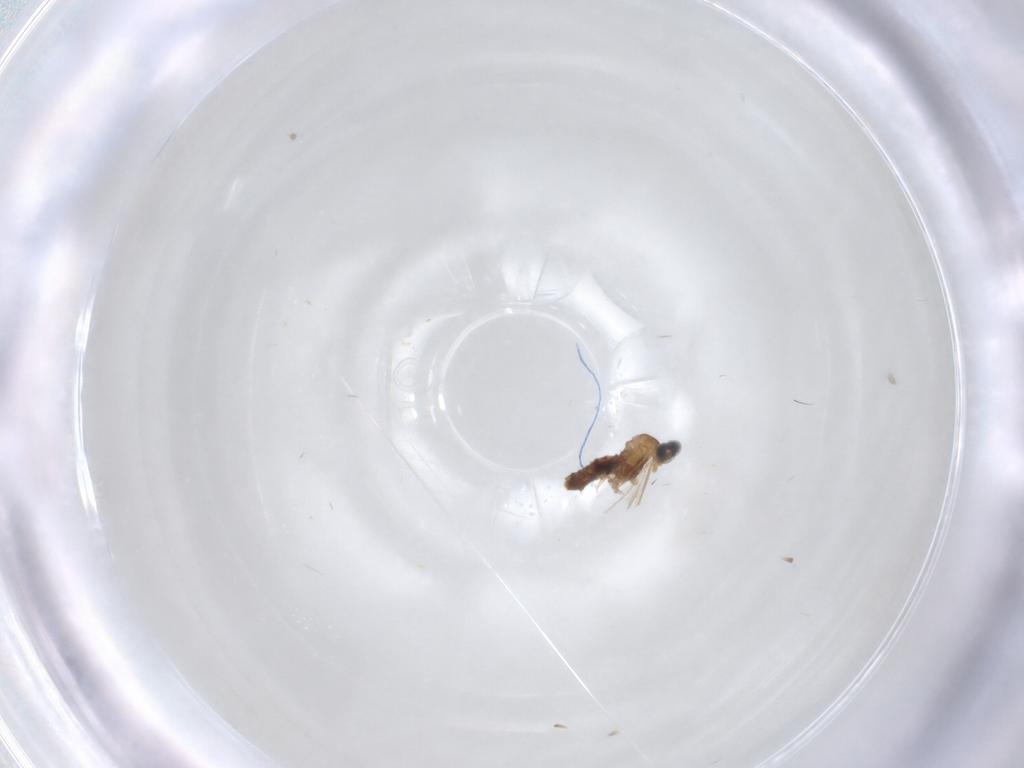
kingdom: Animalia
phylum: Arthropoda
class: Insecta
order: Diptera
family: Cecidomyiidae
